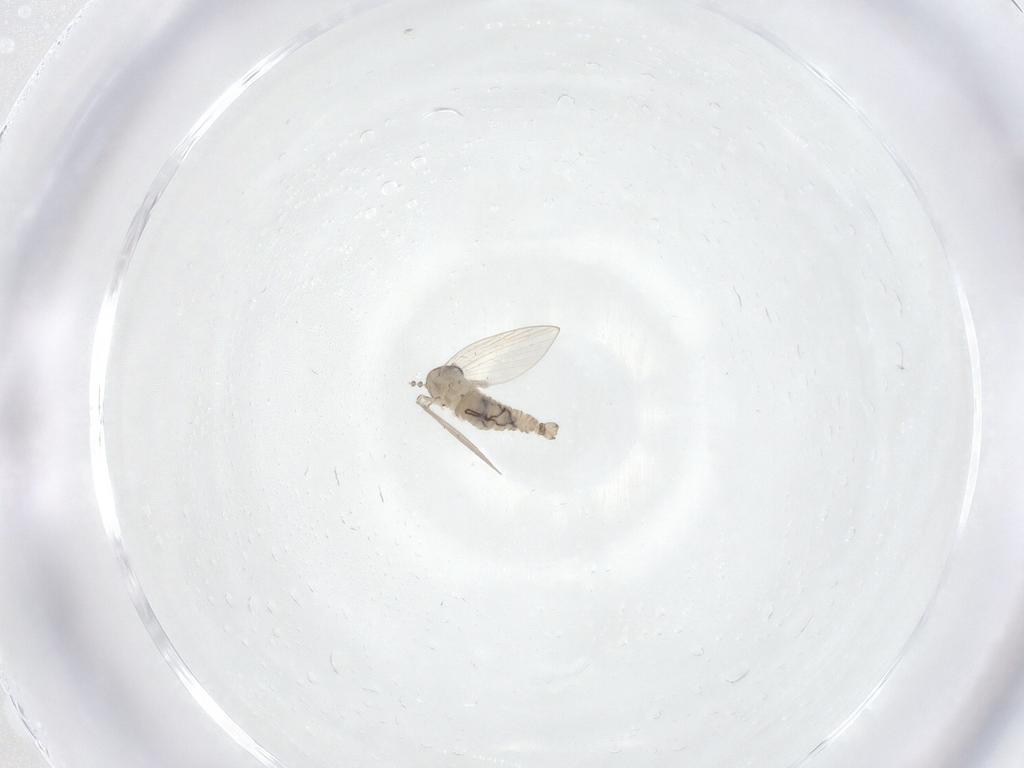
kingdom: Animalia
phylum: Arthropoda
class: Insecta
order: Diptera
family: Psychodidae
